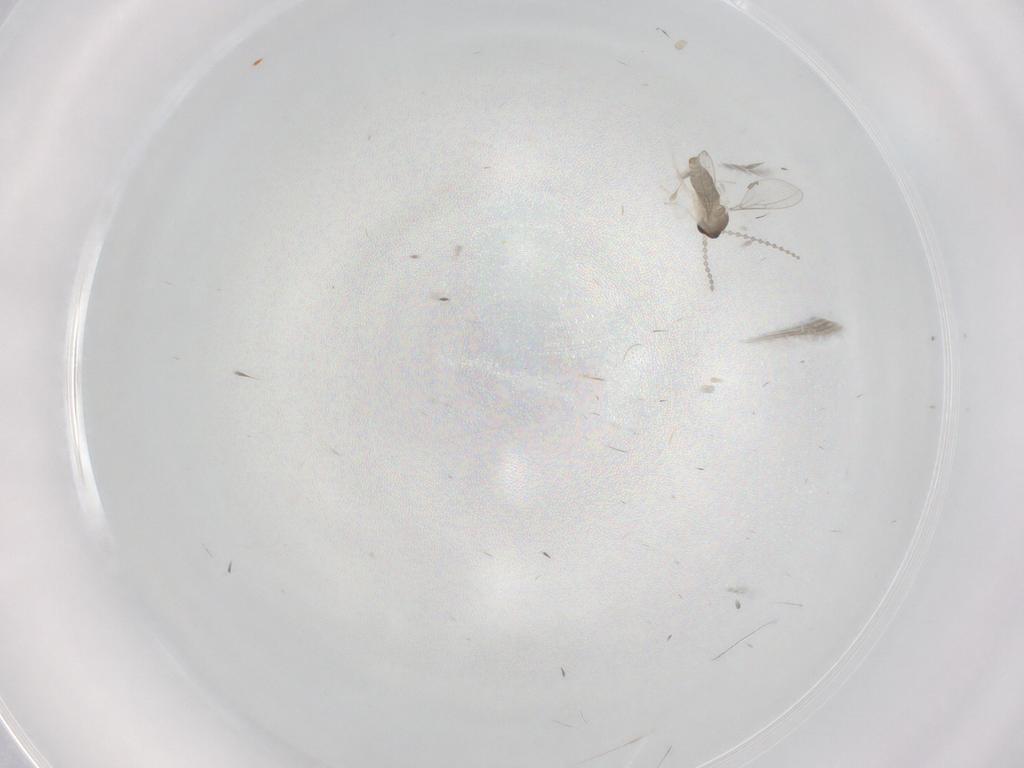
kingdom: Animalia
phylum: Arthropoda
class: Insecta
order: Diptera
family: Cecidomyiidae
